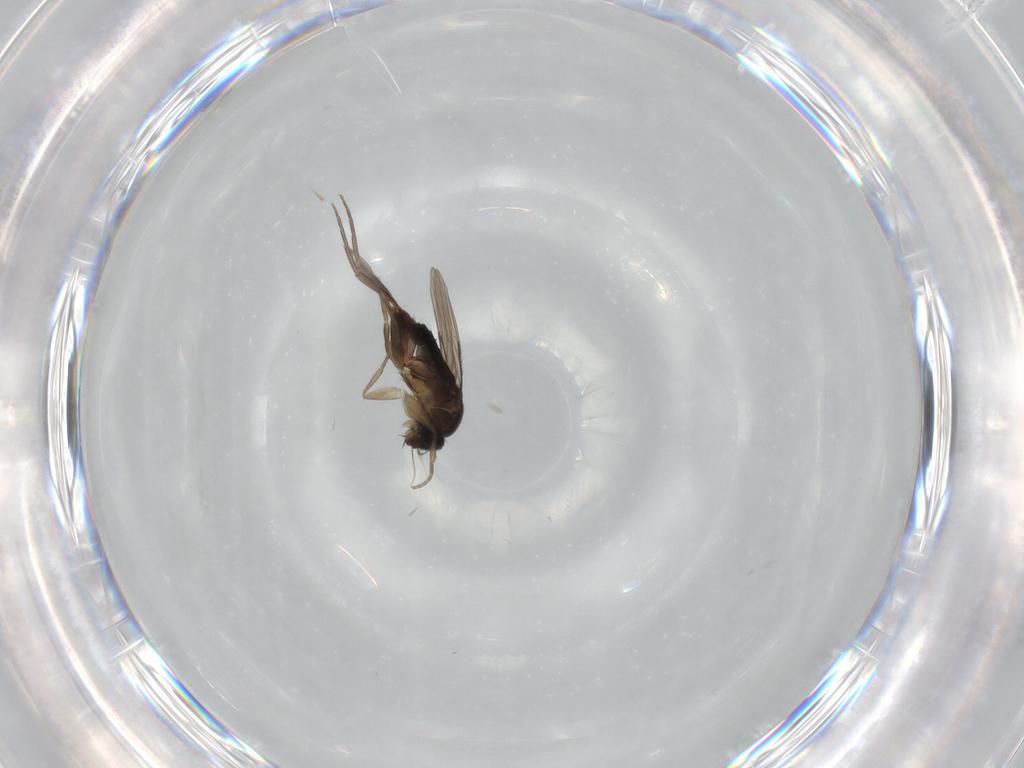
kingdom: Animalia
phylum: Arthropoda
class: Insecta
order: Diptera
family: Phoridae
